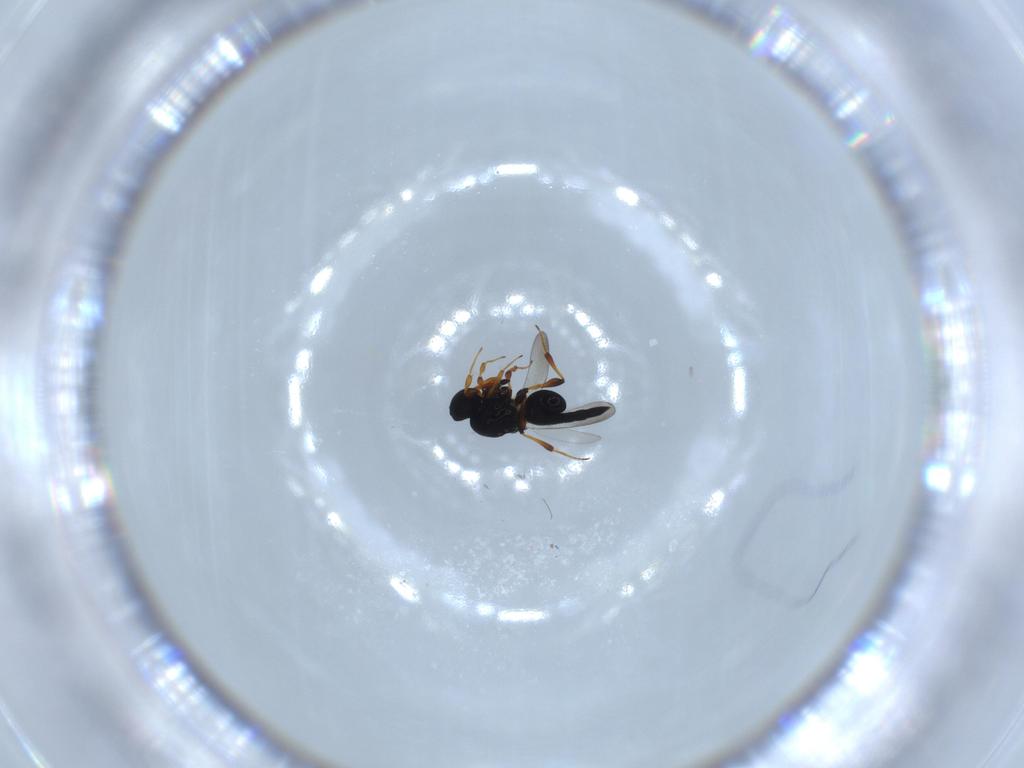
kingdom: Animalia
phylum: Arthropoda
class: Insecta
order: Hymenoptera
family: Platygastridae
